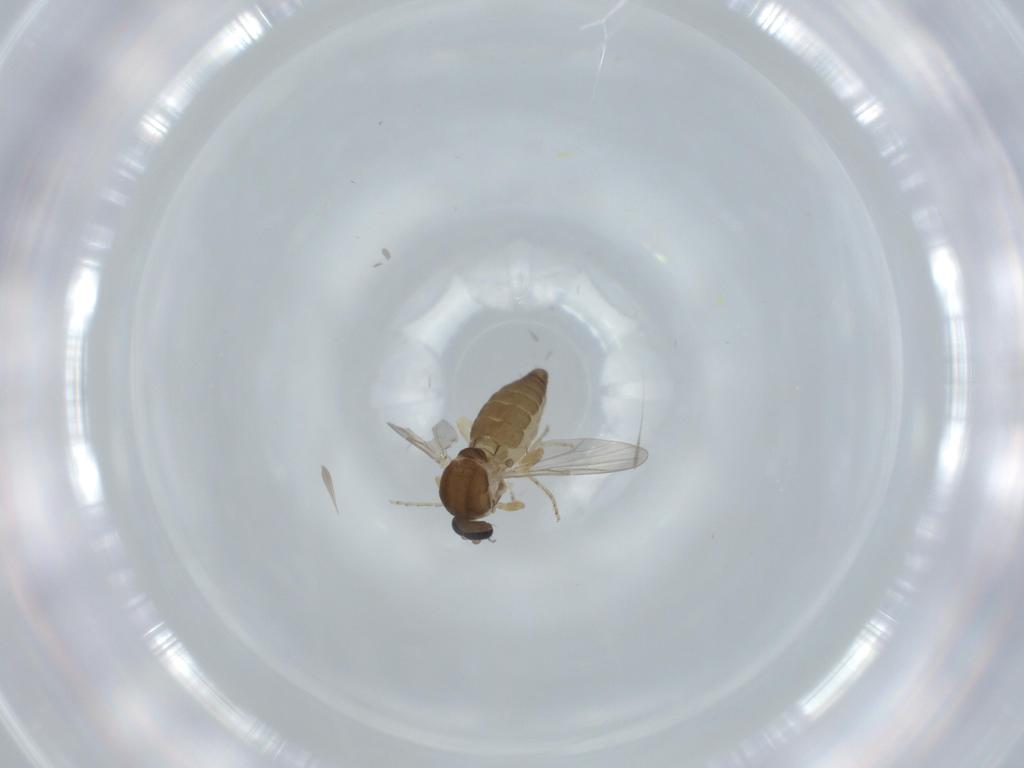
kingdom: Animalia
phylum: Arthropoda
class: Insecta
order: Diptera
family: Ceratopogonidae
